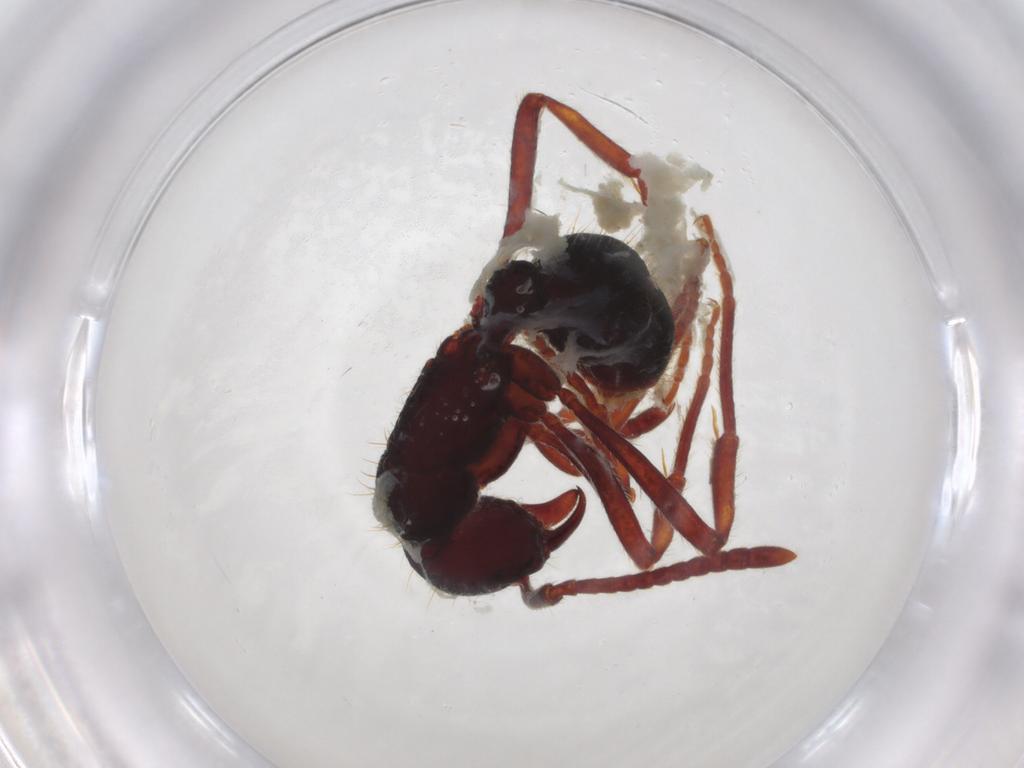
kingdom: Animalia
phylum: Arthropoda
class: Insecta
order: Hymenoptera
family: Formicidae
